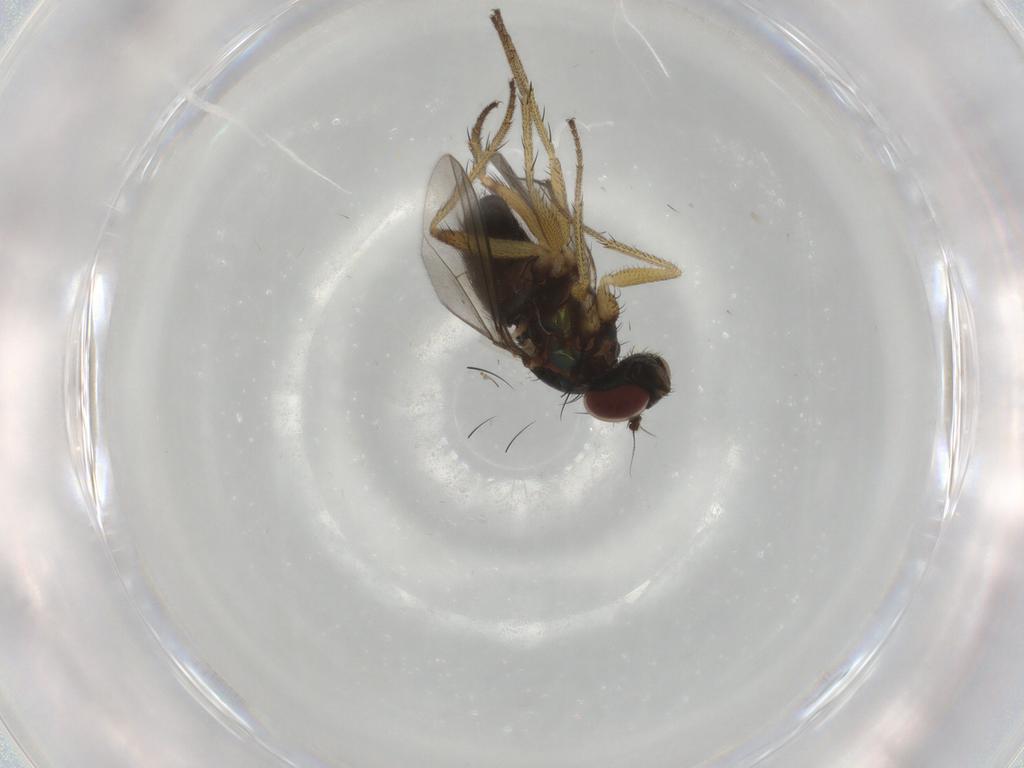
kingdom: Animalia
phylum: Arthropoda
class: Insecta
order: Diptera
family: Dolichopodidae
